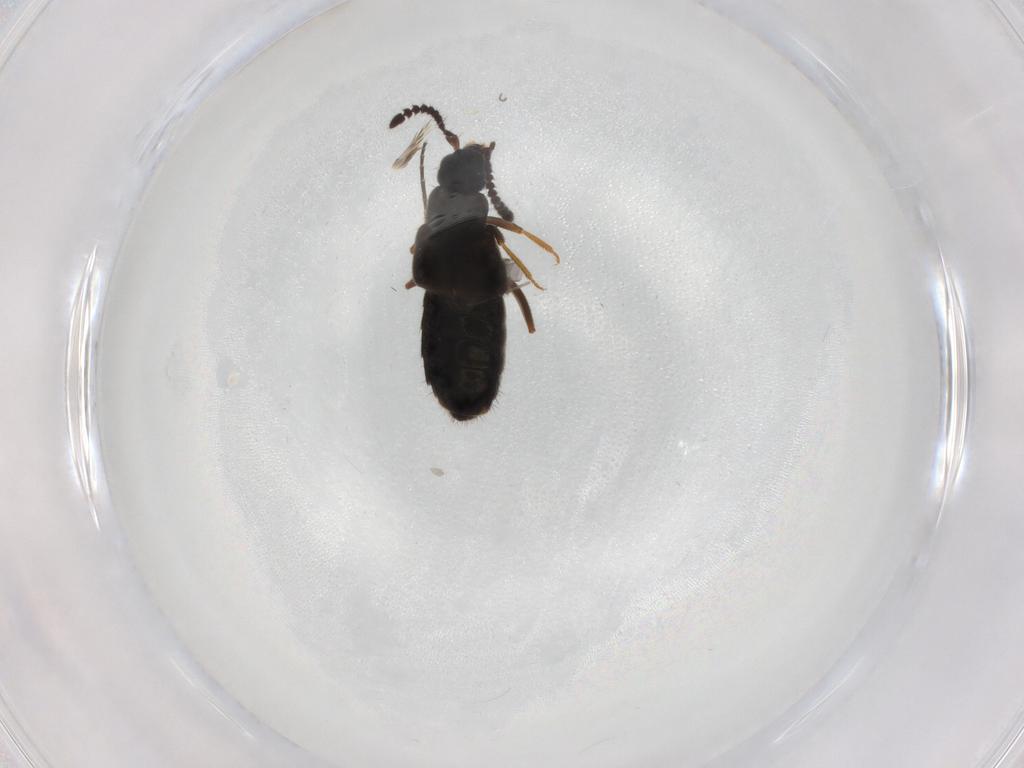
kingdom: Animalia
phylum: Arthropoda
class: Insecta
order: Coleoptera
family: Staphylinidae
